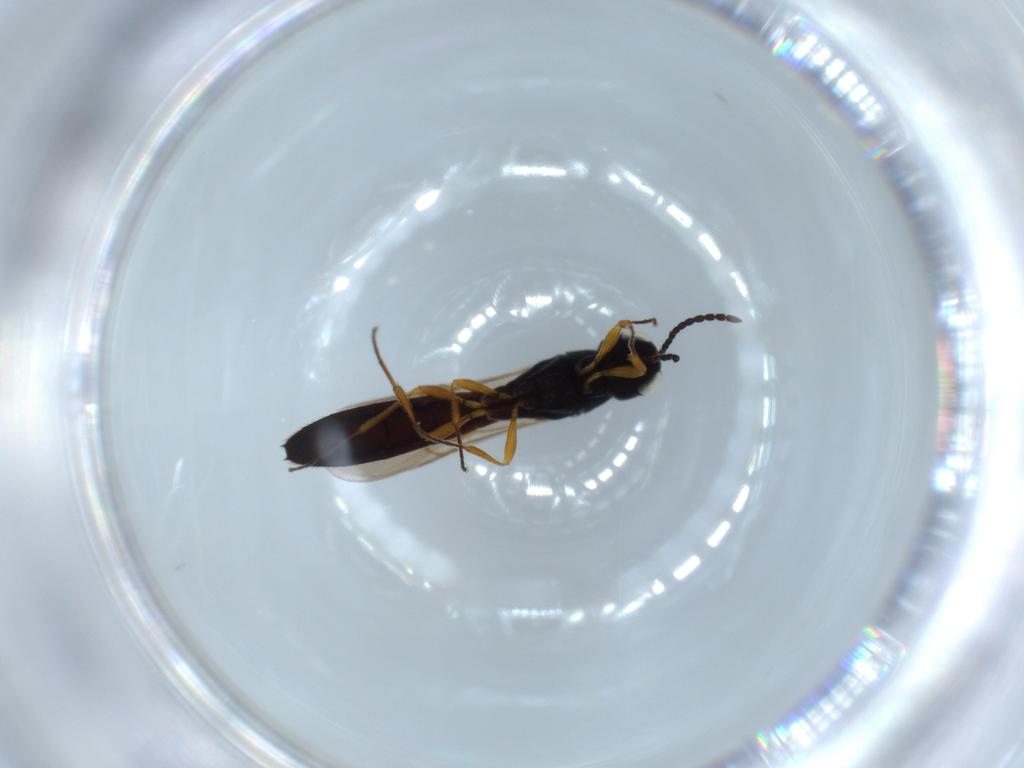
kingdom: Animalia
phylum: Arthropoda
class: Insecta
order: Hymenoptera
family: Scelionidae
